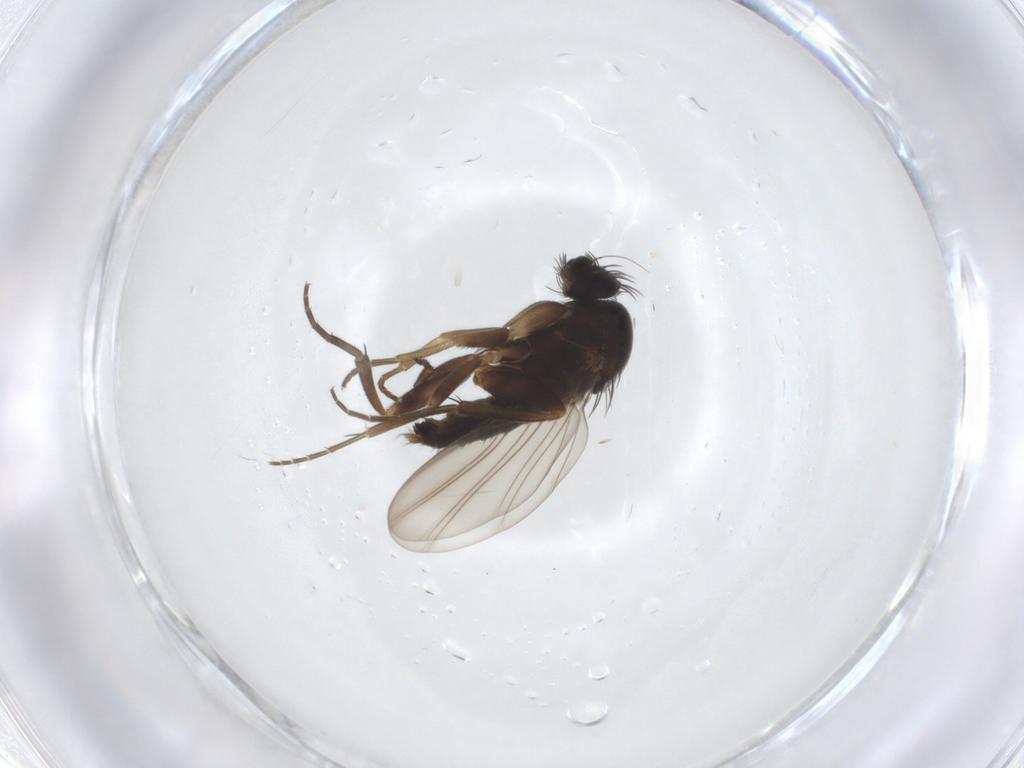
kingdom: Animalia
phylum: Arthropoda
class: Insecta
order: Diptera
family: Phoridae
